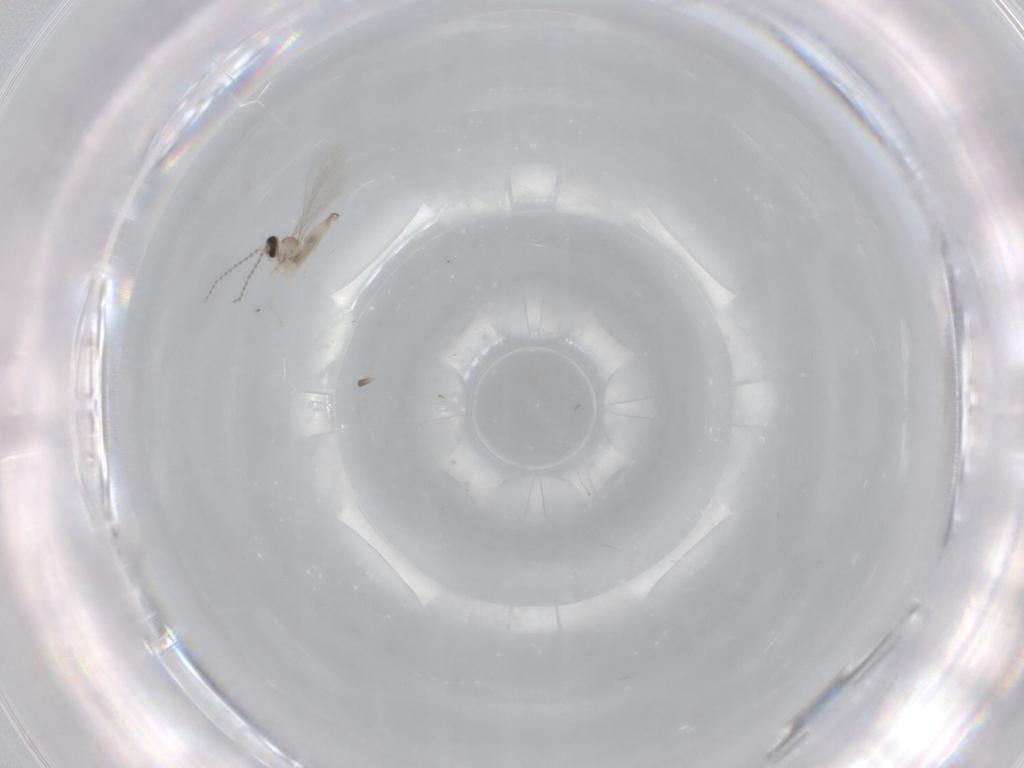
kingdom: Animalia
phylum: Arthropoda
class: Insecta
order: Diptera
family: Cecidomyiidae
